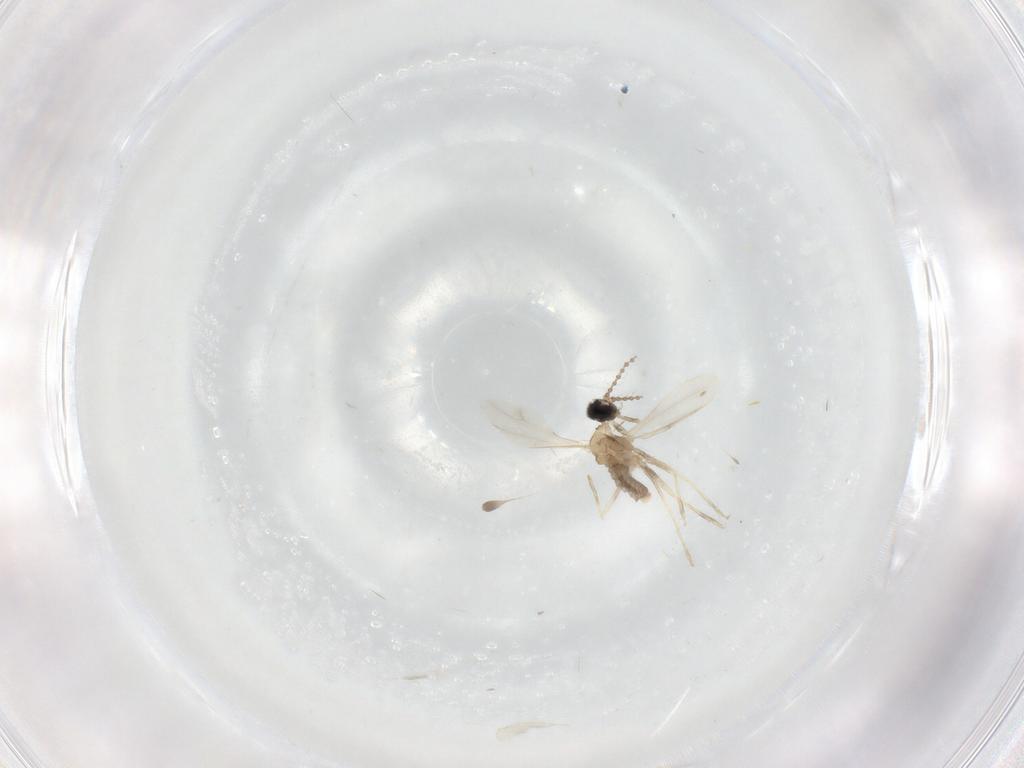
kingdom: Animalia
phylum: Arthropoda
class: Insecta
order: Diptera
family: Cecidomyiidae
